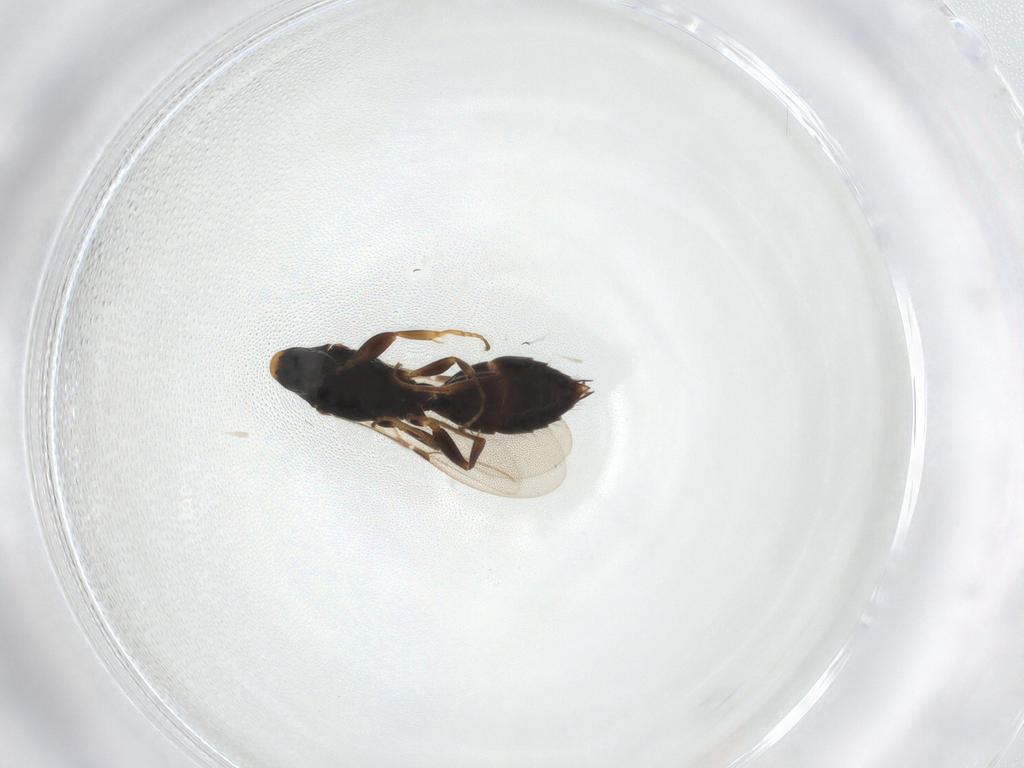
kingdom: Animalia
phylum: Arthropoda
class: Insecta
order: Hymenoptera
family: Bethylidae
